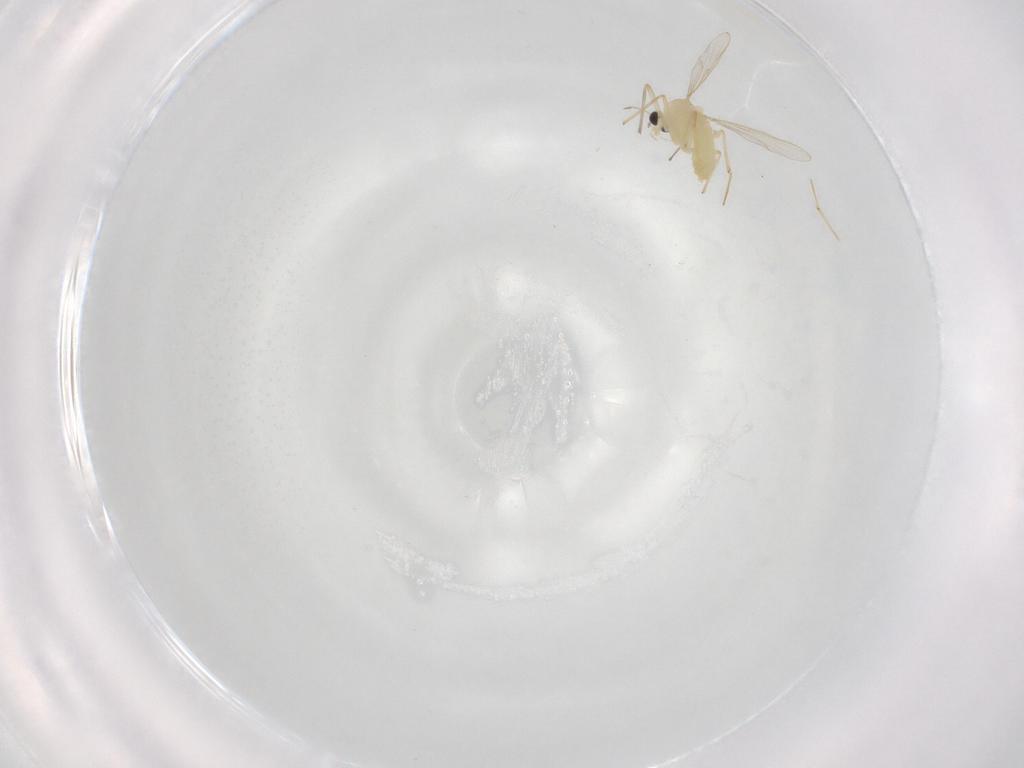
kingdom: Animalia
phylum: Arthropoda
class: Insecta
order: Diptera
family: Chironomidae
